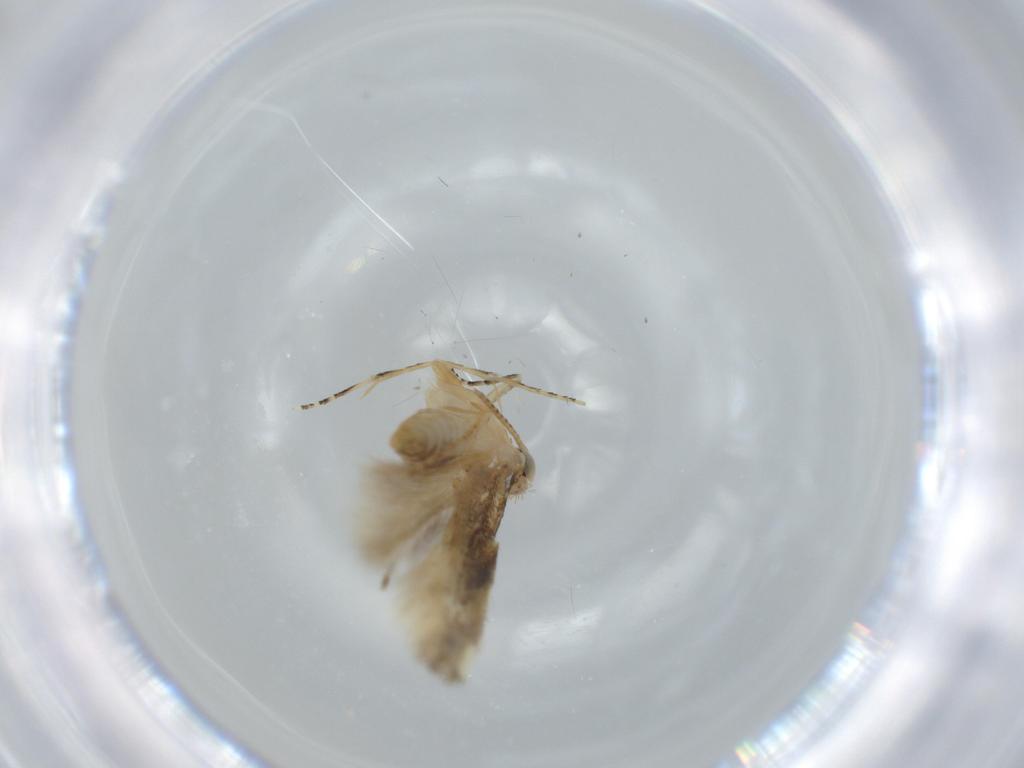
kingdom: Animalia
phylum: Arthropoda
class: Insecta
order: Lepidoptera
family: Bucculatricidae
